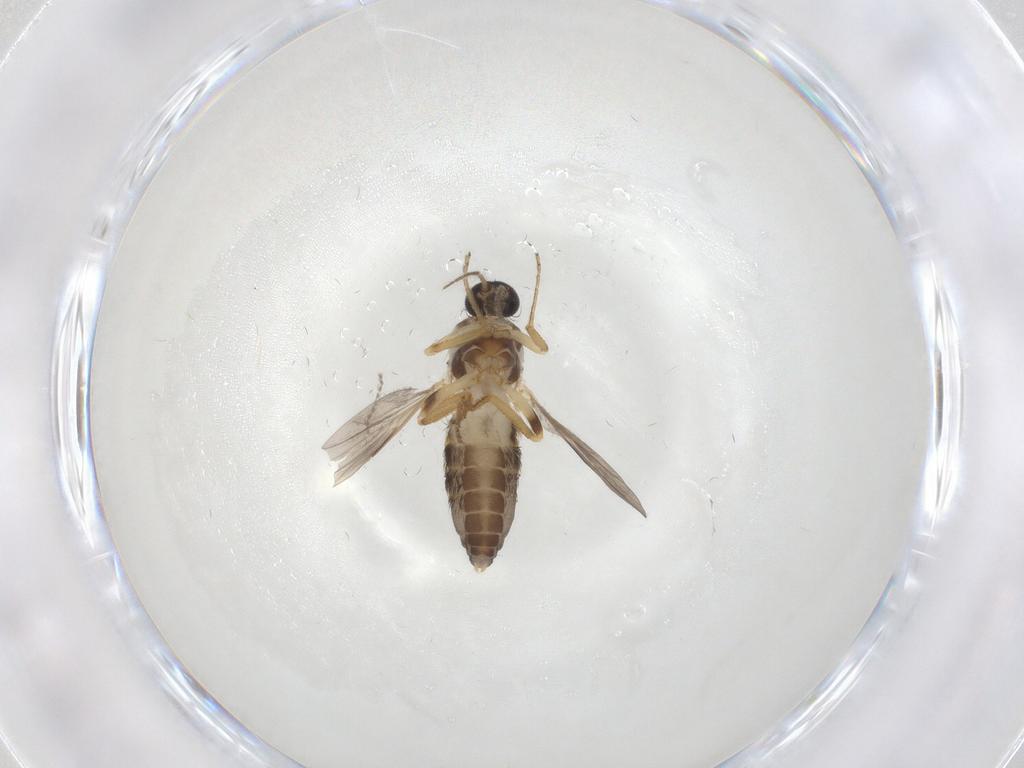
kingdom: Animalia
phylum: Arthropoda
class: Insecta
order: Diptera
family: Ceratopogonidae
